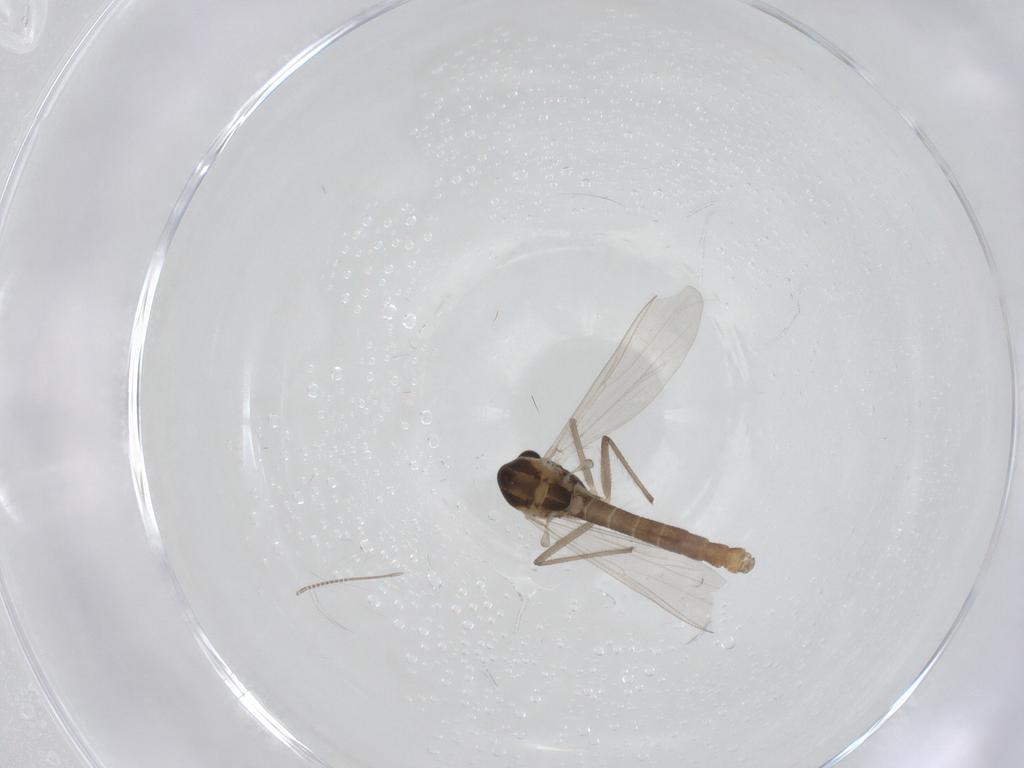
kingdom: Animalia
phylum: Arthropoda
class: Insecta
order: Diptera
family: Chironomidae
